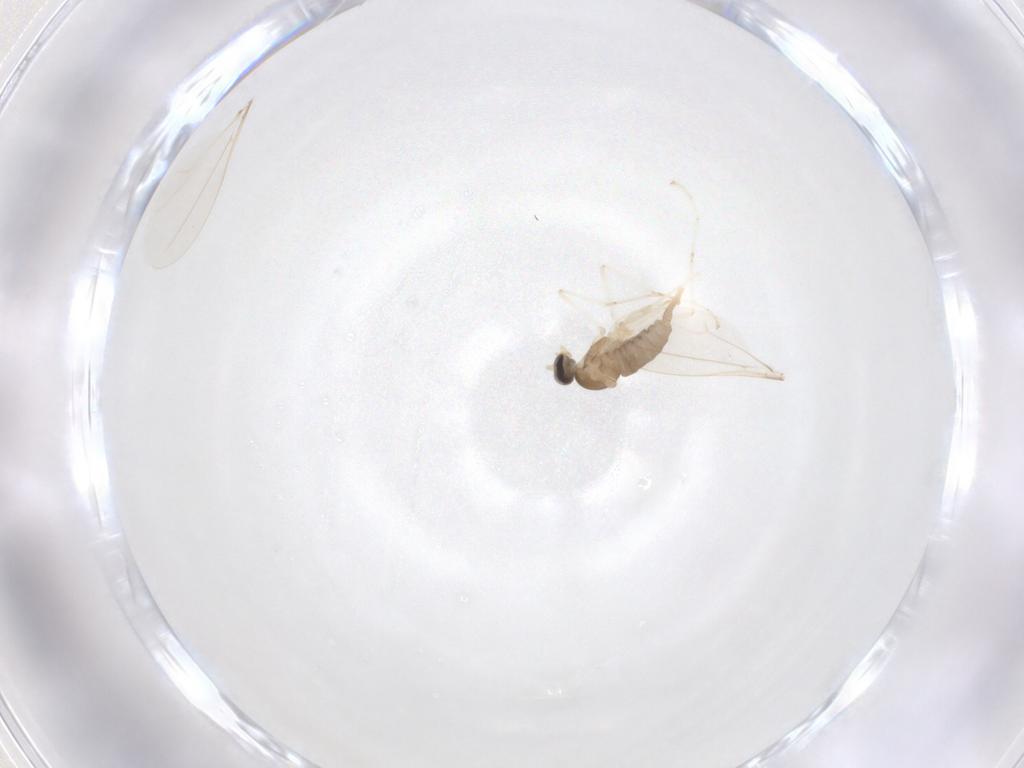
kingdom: Animalia
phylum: Arthropoda
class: Insecta
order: Diptera
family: Cecidomyiidae
